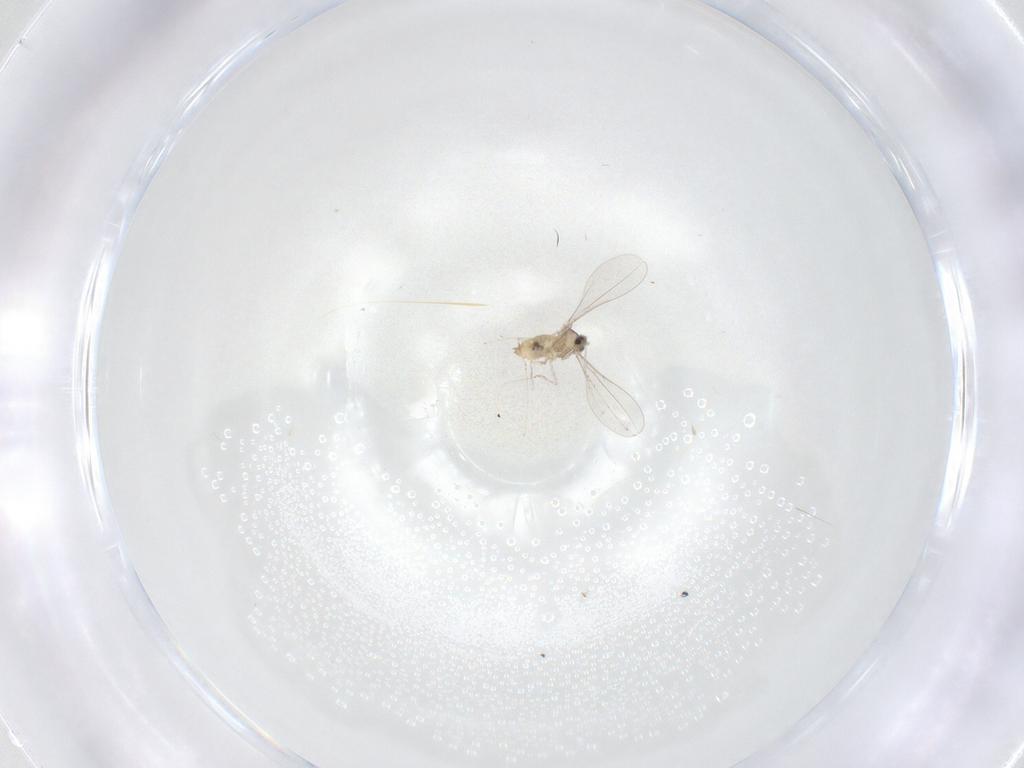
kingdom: Animalia
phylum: Arthropoda
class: Insecta
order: Diptera
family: Cecidomyiidae
